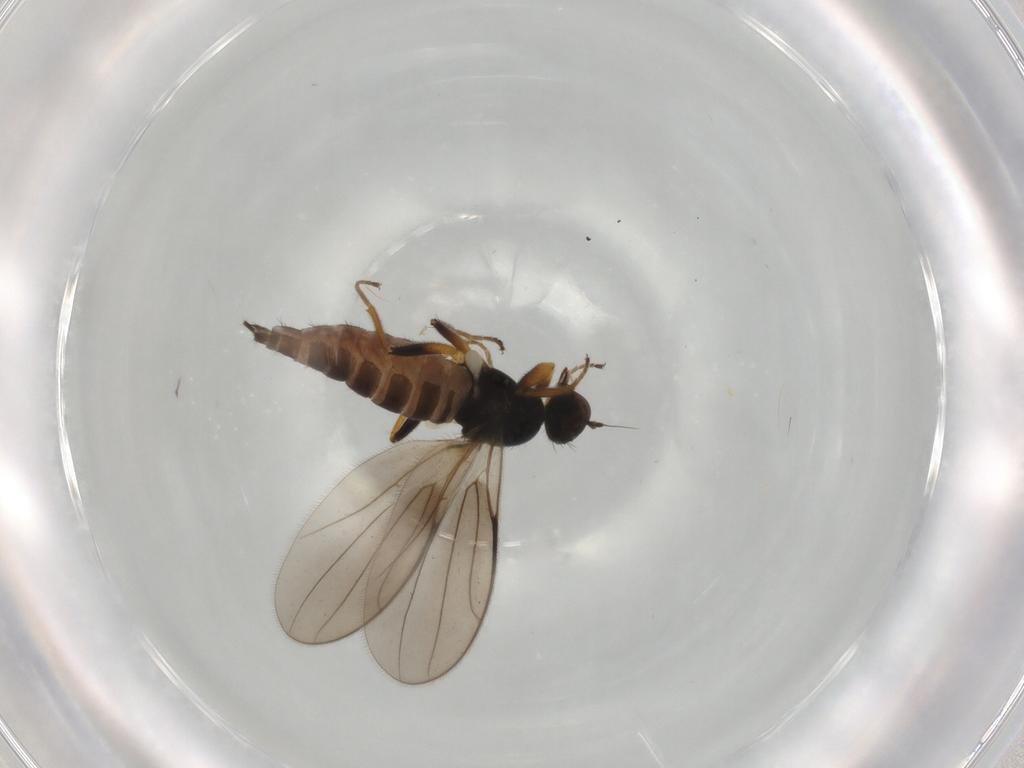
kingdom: Animalia
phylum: Arthropoda
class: Insecta
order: Diptera
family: Hybotidae
